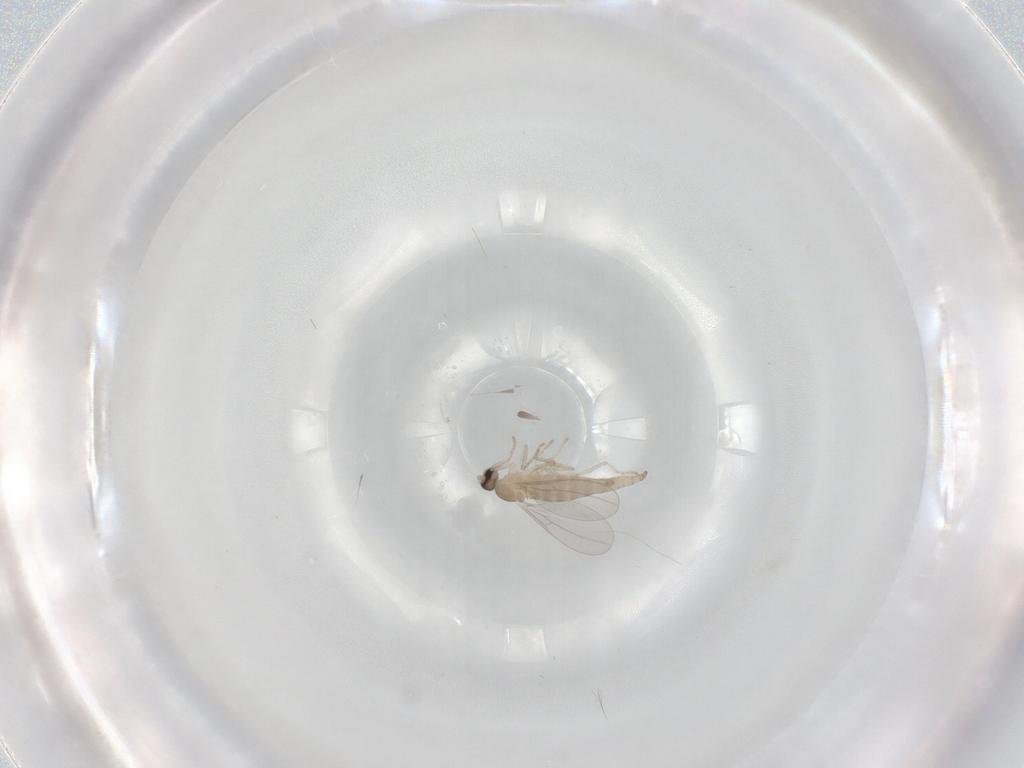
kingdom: Animalia
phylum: Arthropoda
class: Insecta
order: Diptera
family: Cecidomyiidae
